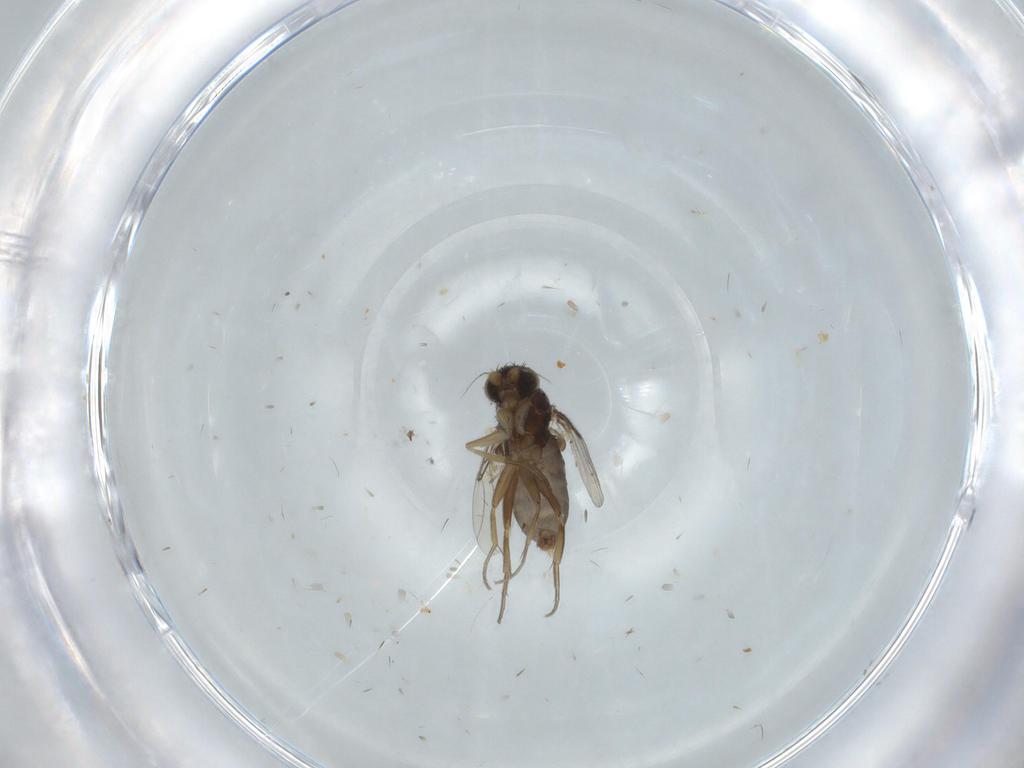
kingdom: Animalia
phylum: Arthropoda
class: Insecta
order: Diptera
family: Phoridae
